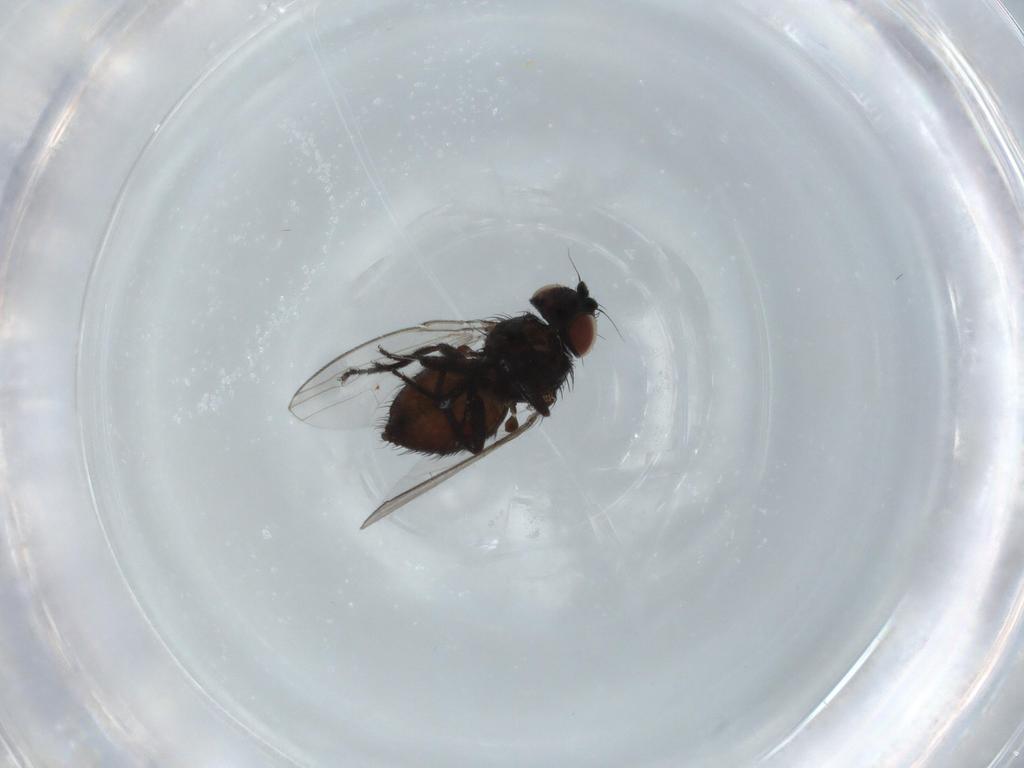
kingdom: Animalia
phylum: Arthropoda
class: Insecta
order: Diptera
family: Milichiidae
